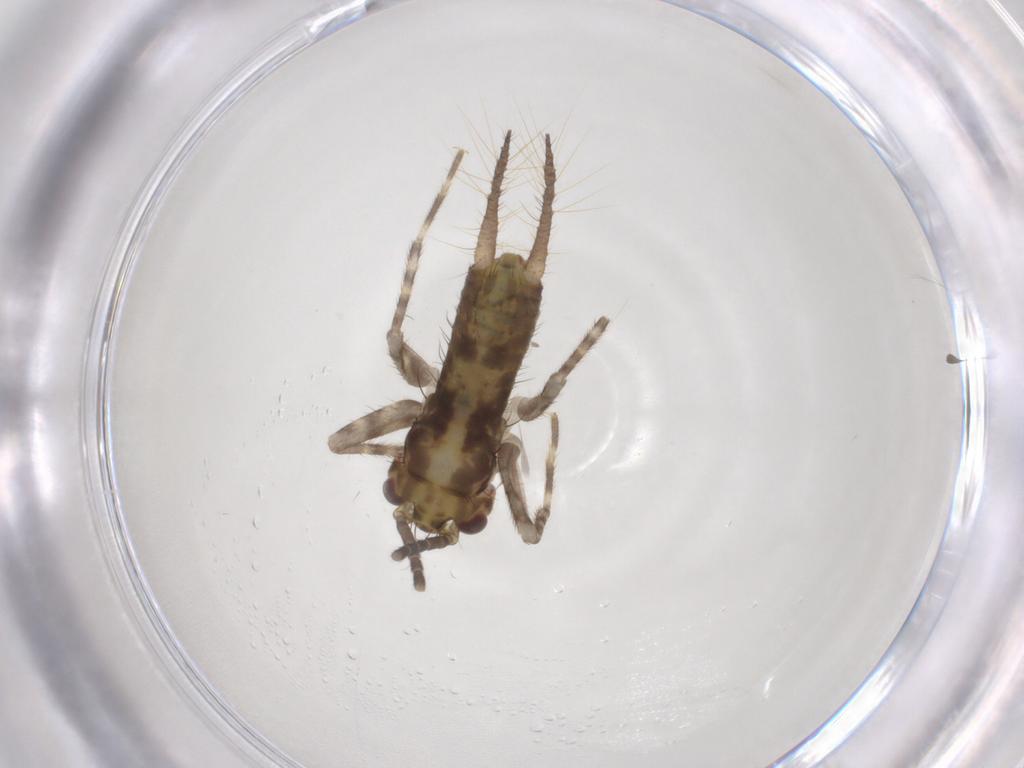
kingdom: Animalia
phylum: Arthropoda
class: Insecta
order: Orthoptera
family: Gryllidae
